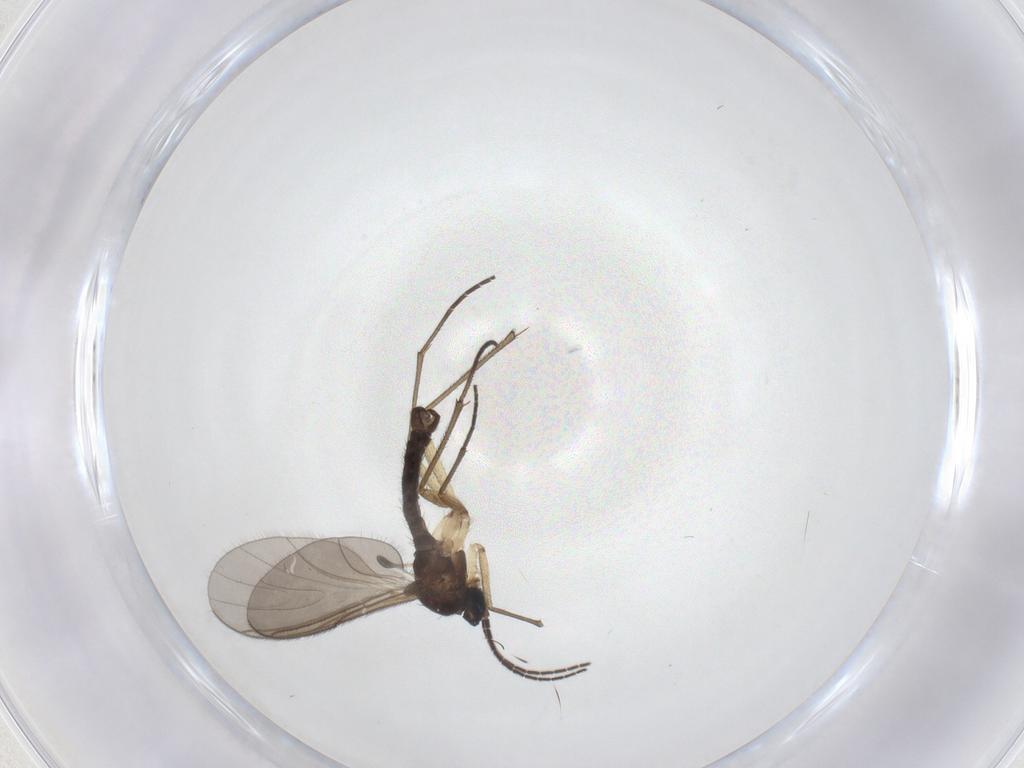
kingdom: Animalia
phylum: Arthropoda
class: Insecta
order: Diptera
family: Sciaridae
